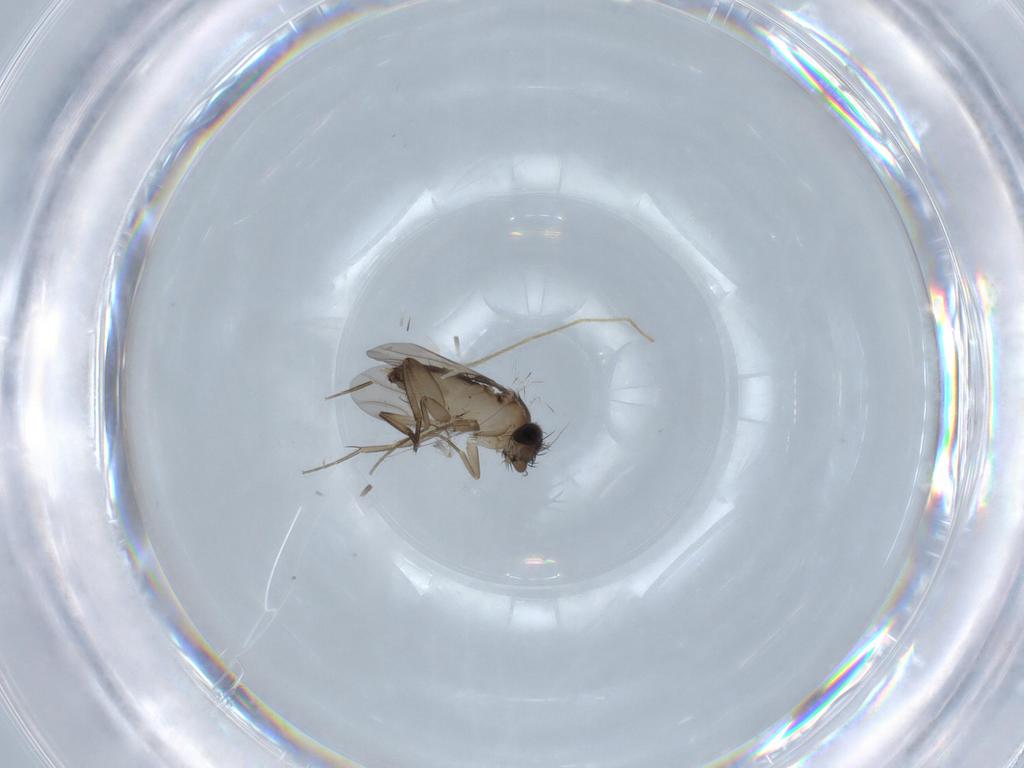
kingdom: Animalia
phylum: Arthropoda
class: Insecta
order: Diptera
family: Phoridae
